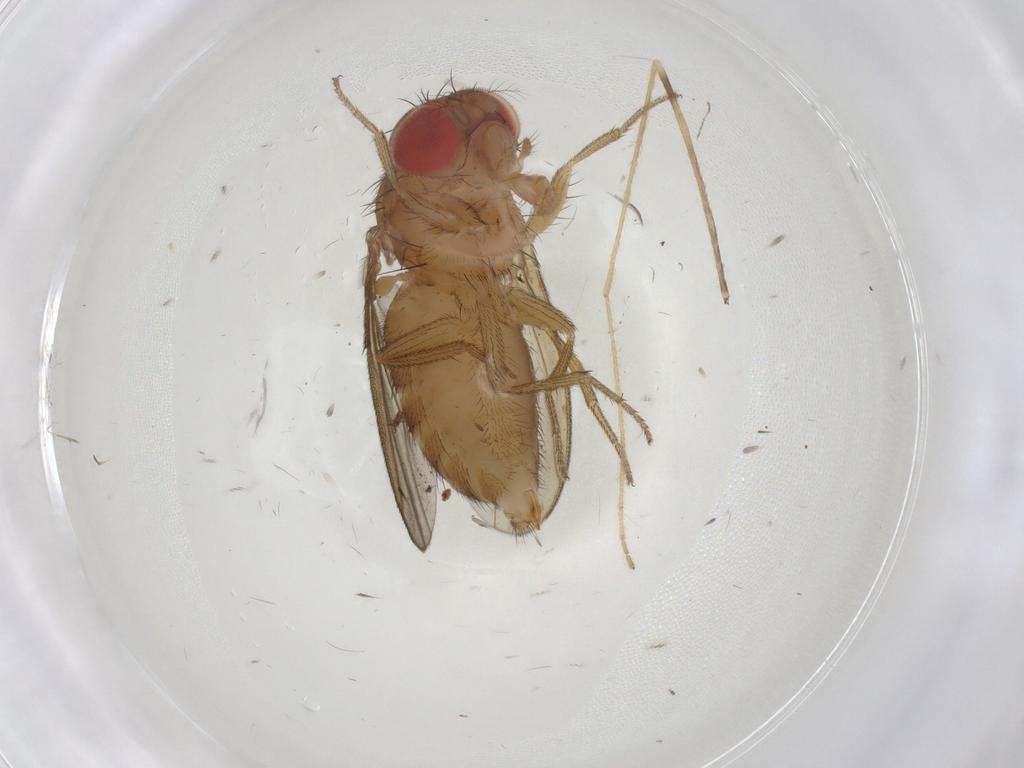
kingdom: Animalia
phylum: Arthropoda
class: Insecta
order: Diptera
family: Drosophilidae
